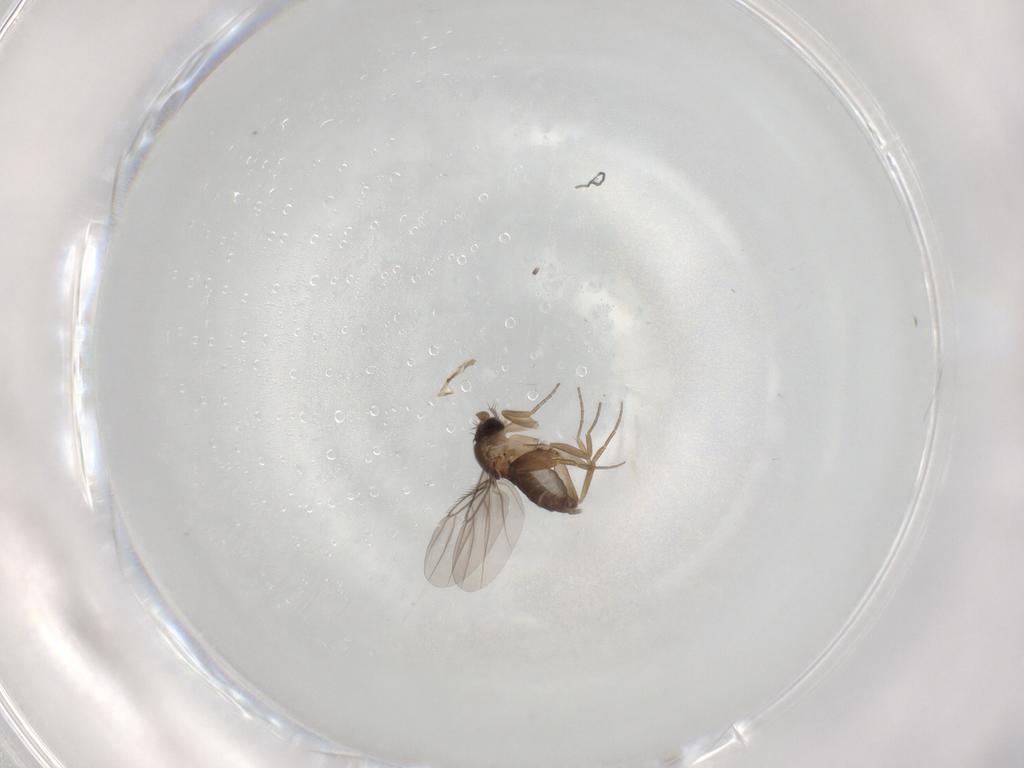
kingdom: Animalia
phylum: Arthropoda
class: Insecta
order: Diptera
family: Phoridae
